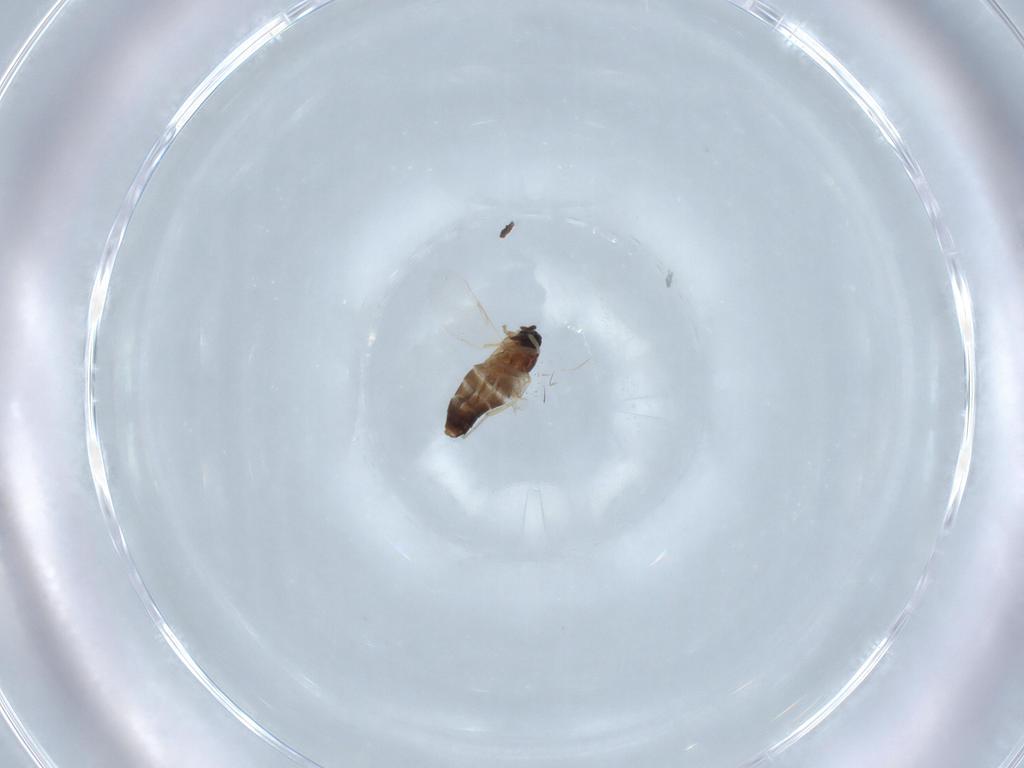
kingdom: Animalia
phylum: Arthropoda
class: Insecta
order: Diptera
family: Scatopsidae
